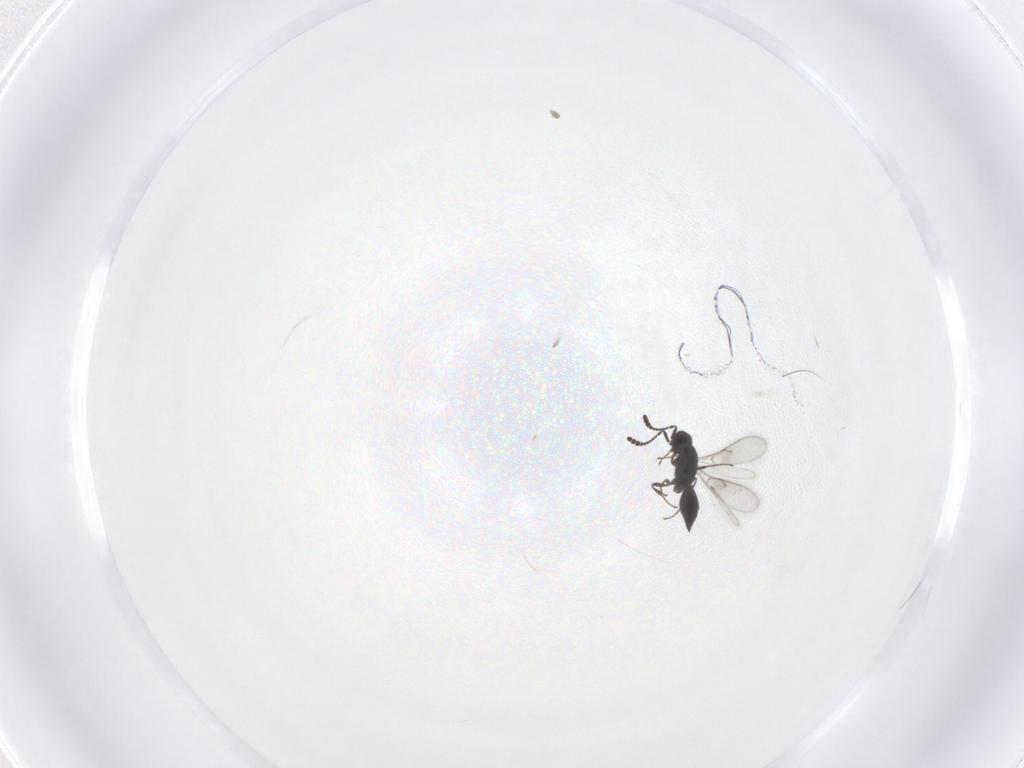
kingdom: Animalia
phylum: Arthropoda
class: Insecta
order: Hymenoptera
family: Scelionidae
